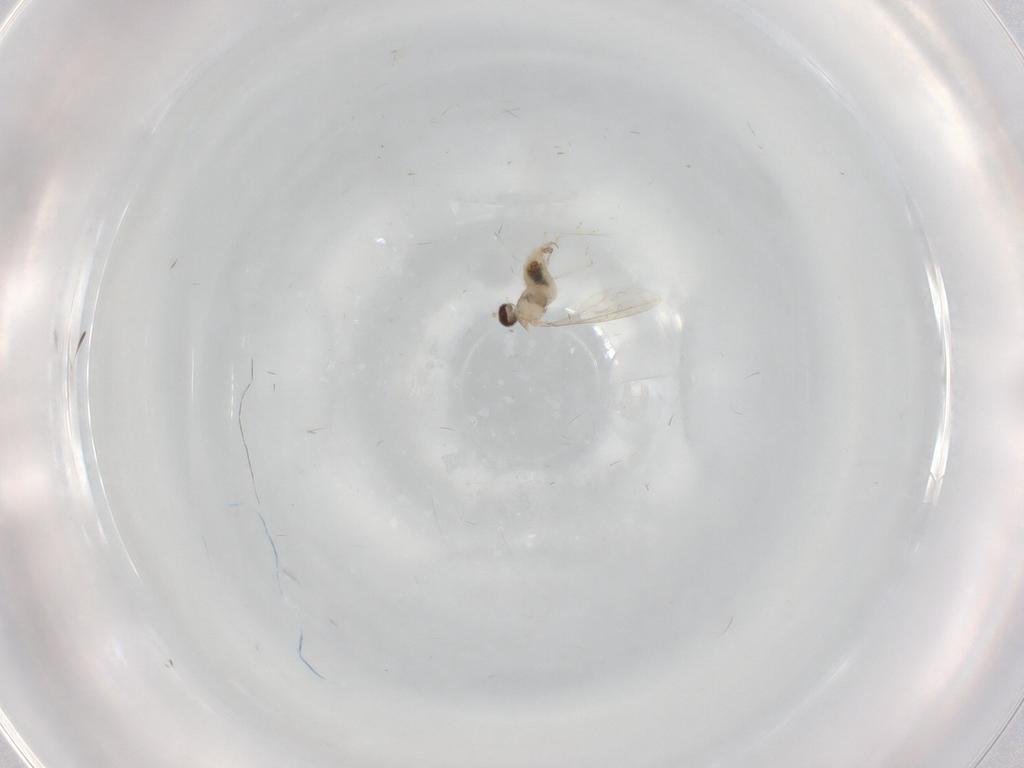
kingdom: Animalia
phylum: Arthropoda
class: Insecta
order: Diptera
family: Cecidomyiidae
